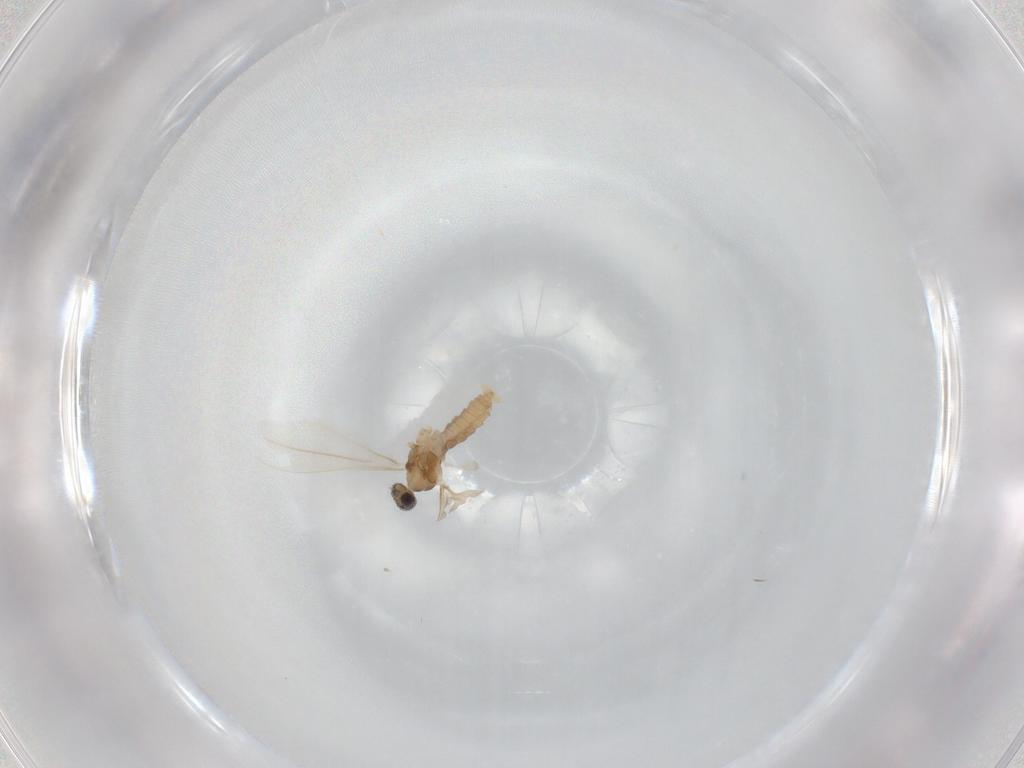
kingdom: Animalia
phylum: Arthropoda
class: Insecta
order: Diptera
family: Cecidomyiidae
